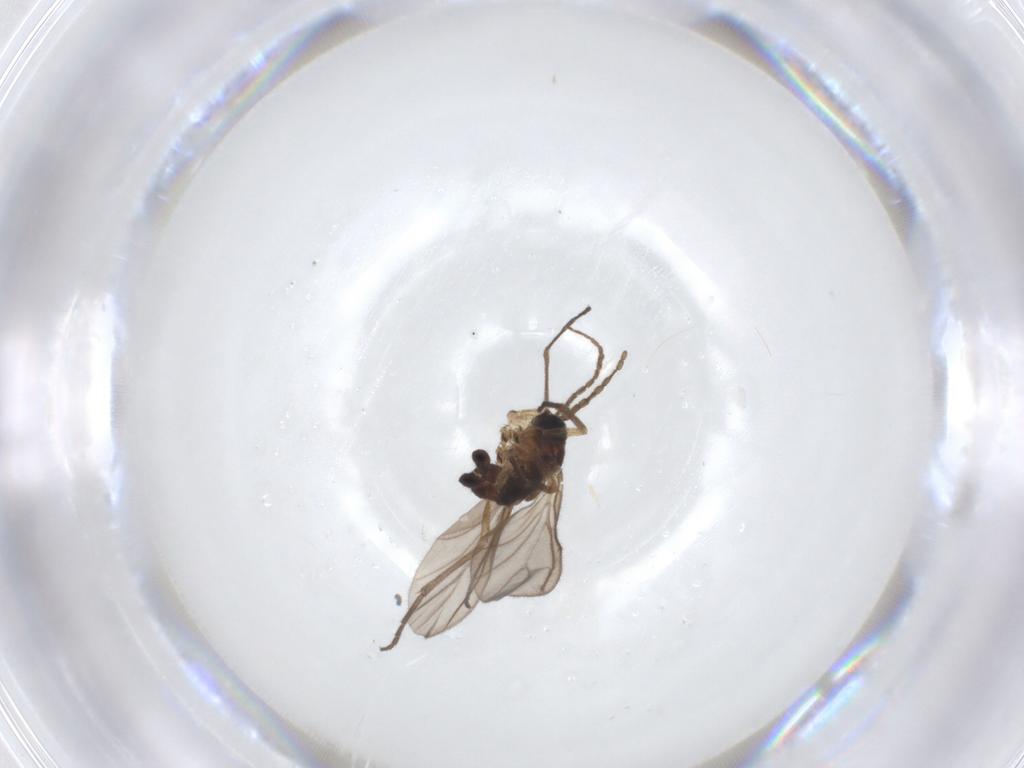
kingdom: Animalia
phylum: Arthropoda
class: Insecta
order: Diptera
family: Sciaridae
